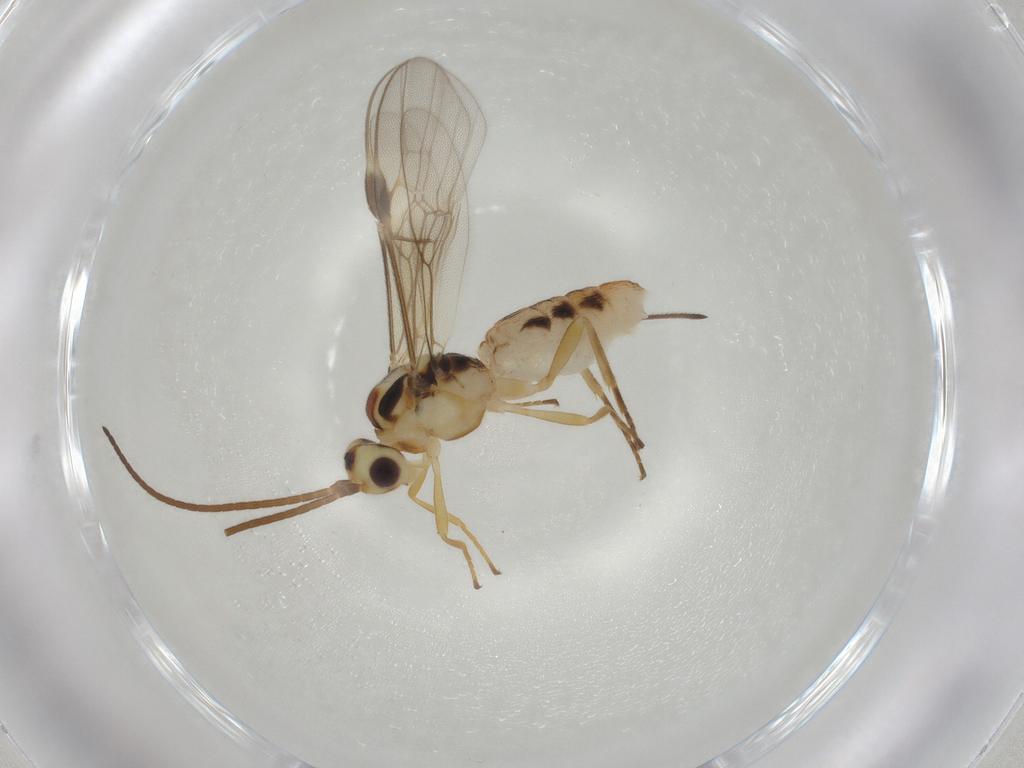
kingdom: Animalia
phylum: Arthropoda
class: Insecta
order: Hymenoptera
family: Braconidae
